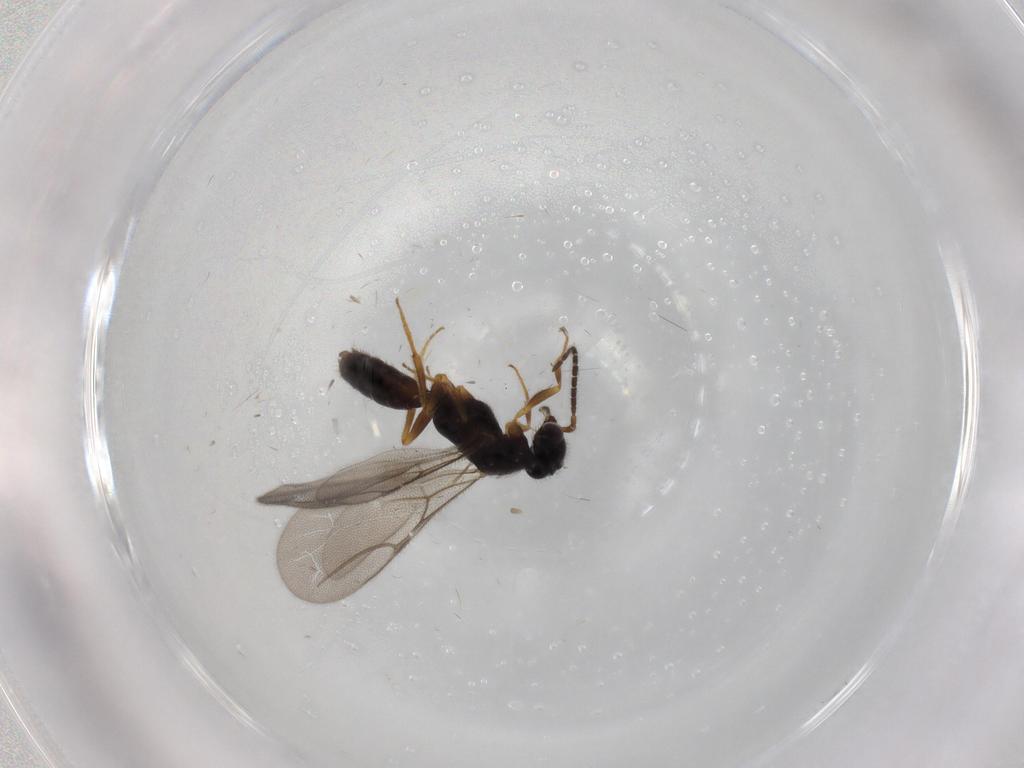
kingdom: Animalia
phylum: Arthropoda
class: Insecta
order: Hymenoptera
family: Bethylidae
